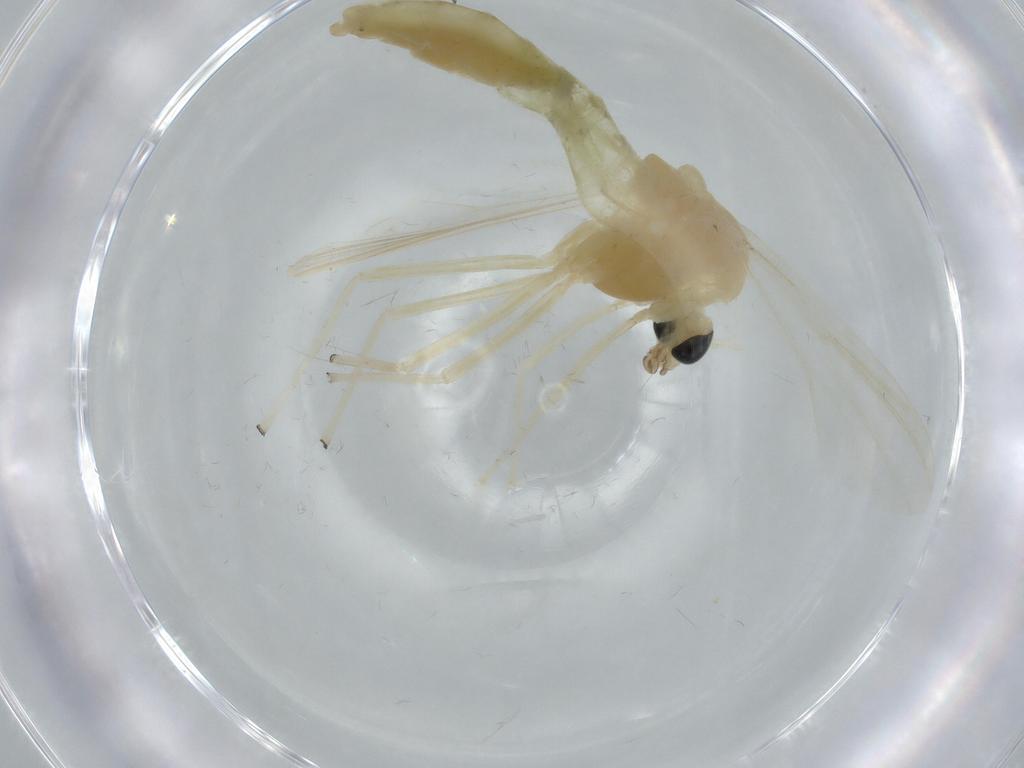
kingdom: Animalia
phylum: Arthropoda
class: Insecta
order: Diptera
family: Chironomidae
